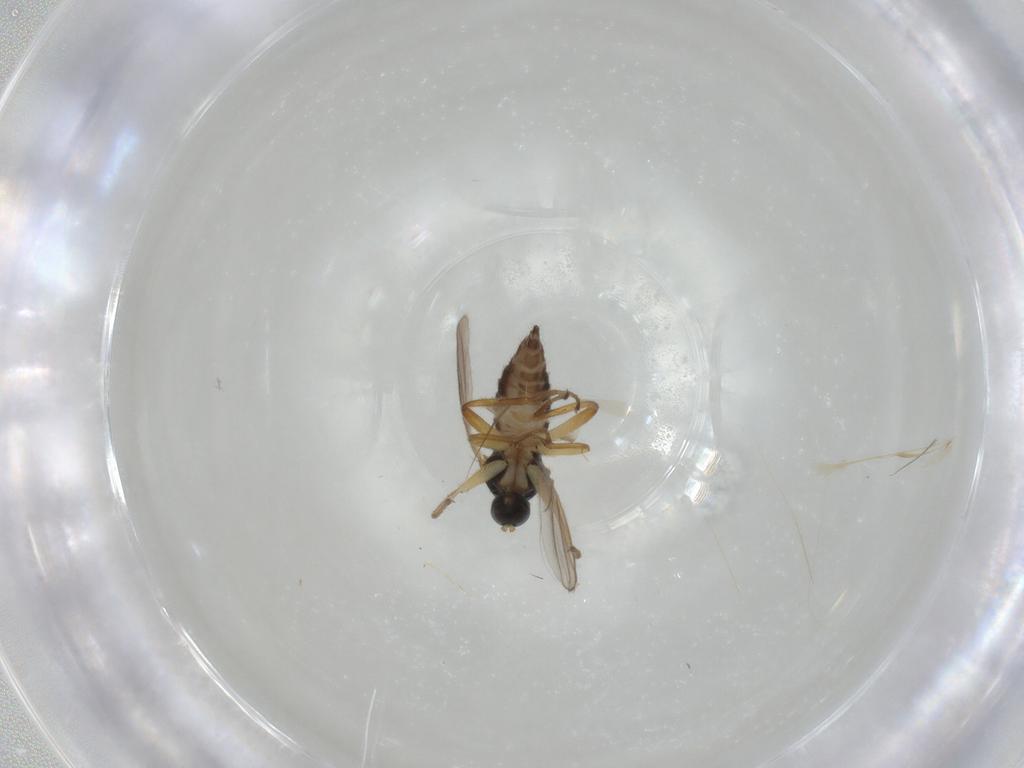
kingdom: Animalia
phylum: Arthropoda
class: Insecta
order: Diptera
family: Hybotidae
